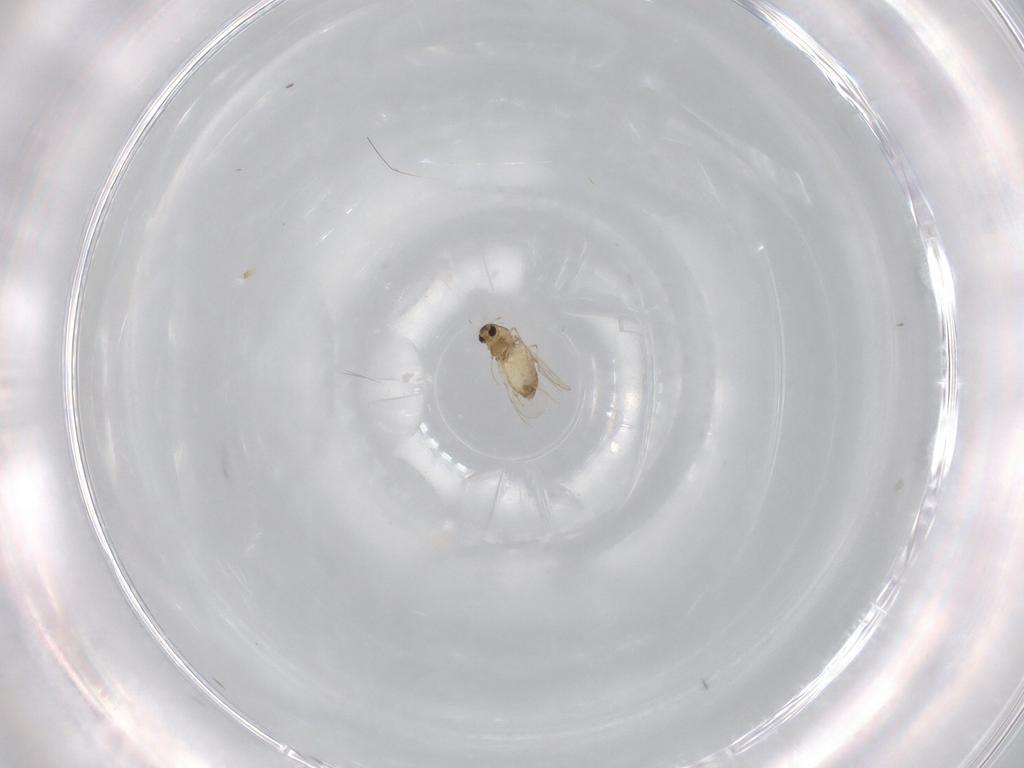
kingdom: Animalia
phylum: Arthropoda
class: Insecta
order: Diptera
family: Chironomidae
